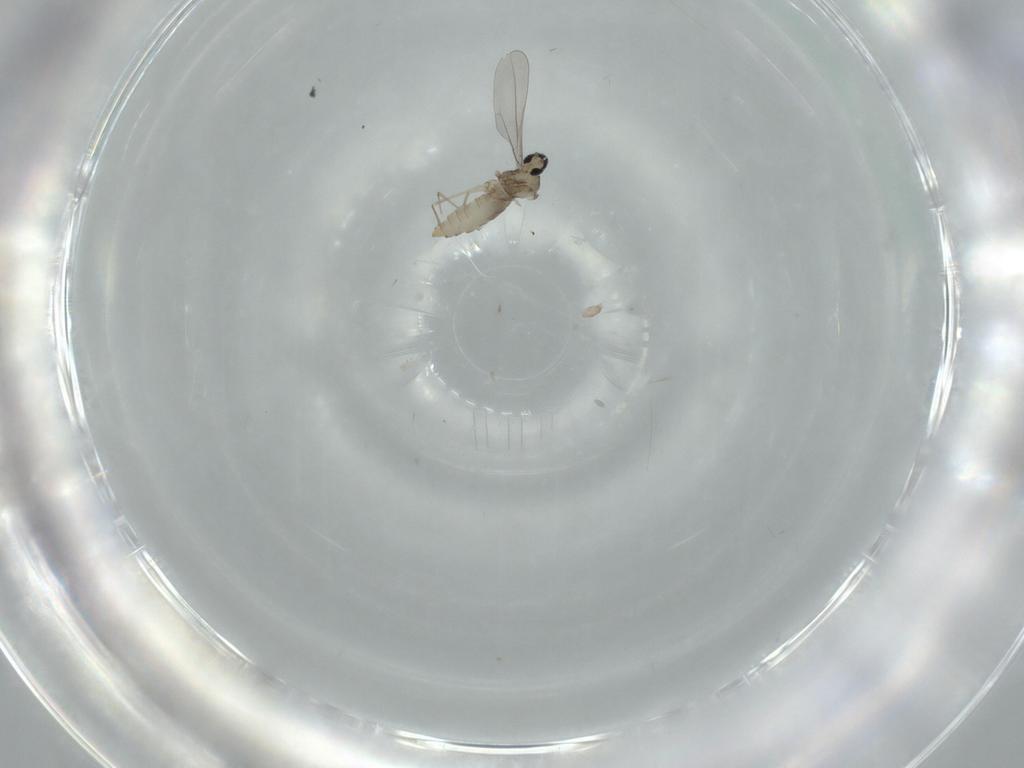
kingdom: Animalia
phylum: Arthropoda
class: Insecta
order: Diptera
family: Cecidomyiidae
